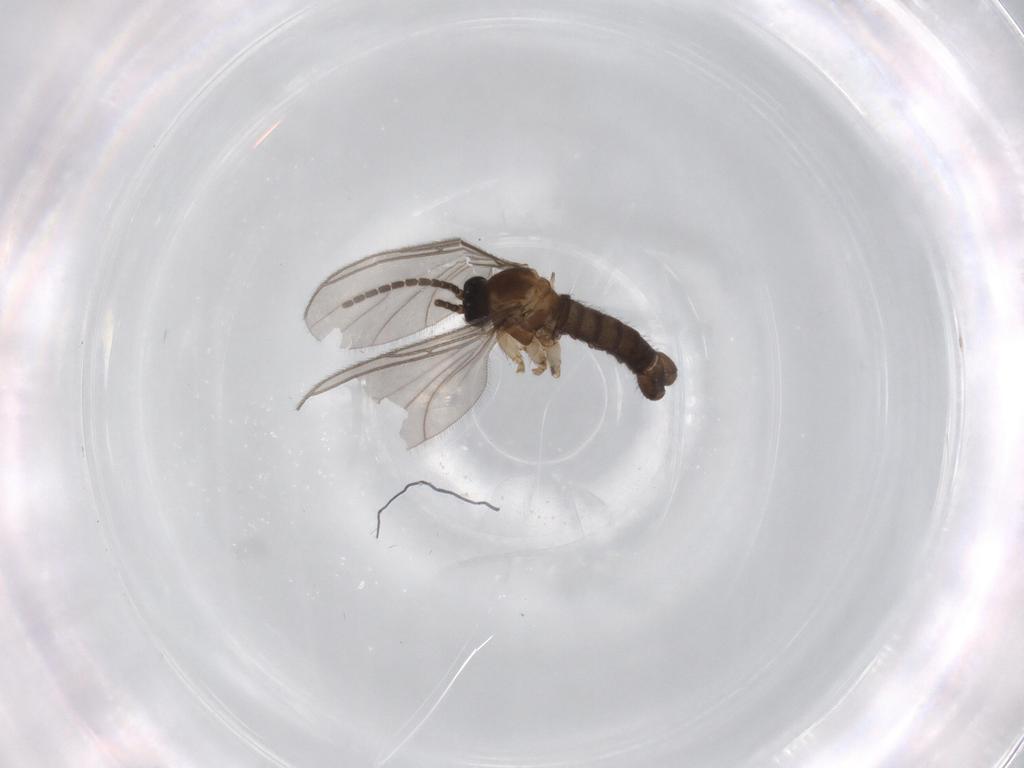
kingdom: Animalia
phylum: Arthropoda
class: Insecta
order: Diptera
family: Sciaridae
